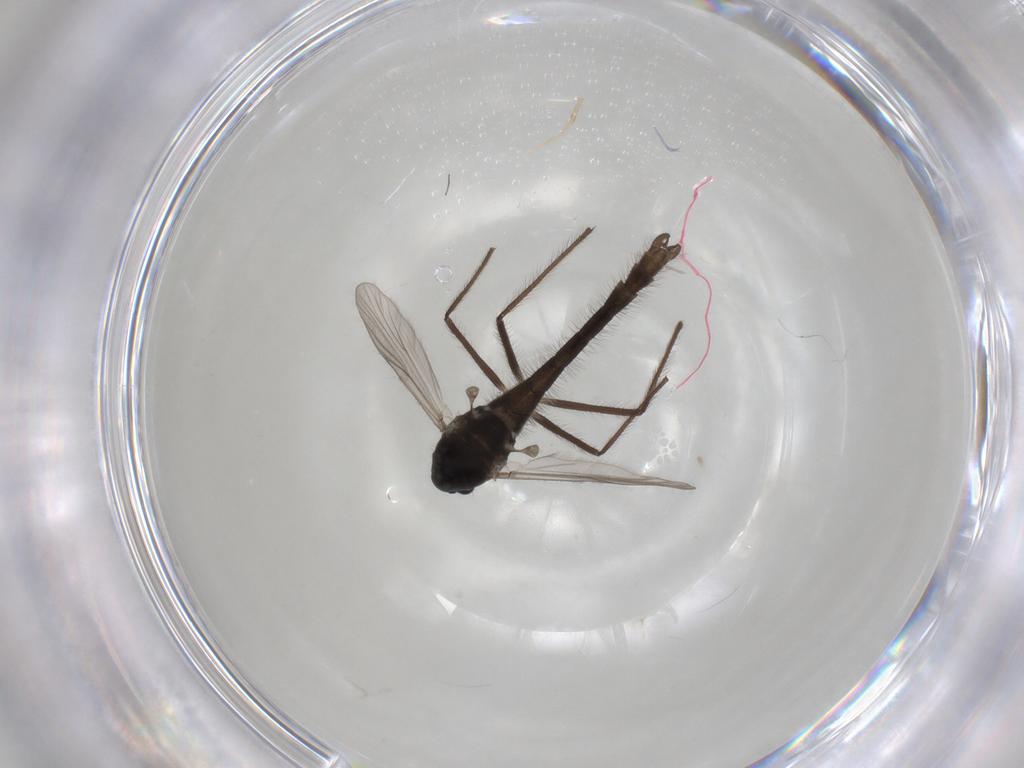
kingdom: Animalia
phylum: Arthropoda
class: Insecta
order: Diptera
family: Chironomidae
